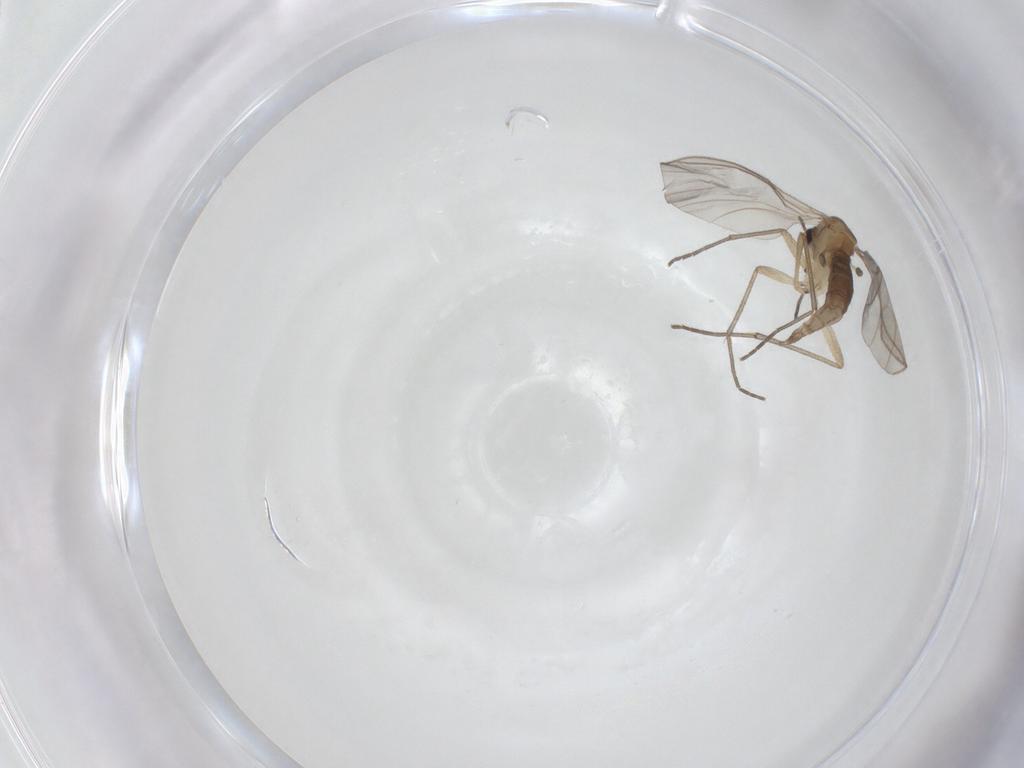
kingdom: Animalia
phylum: Arthropoda
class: Insecta
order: Diptera
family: Sciaridae
